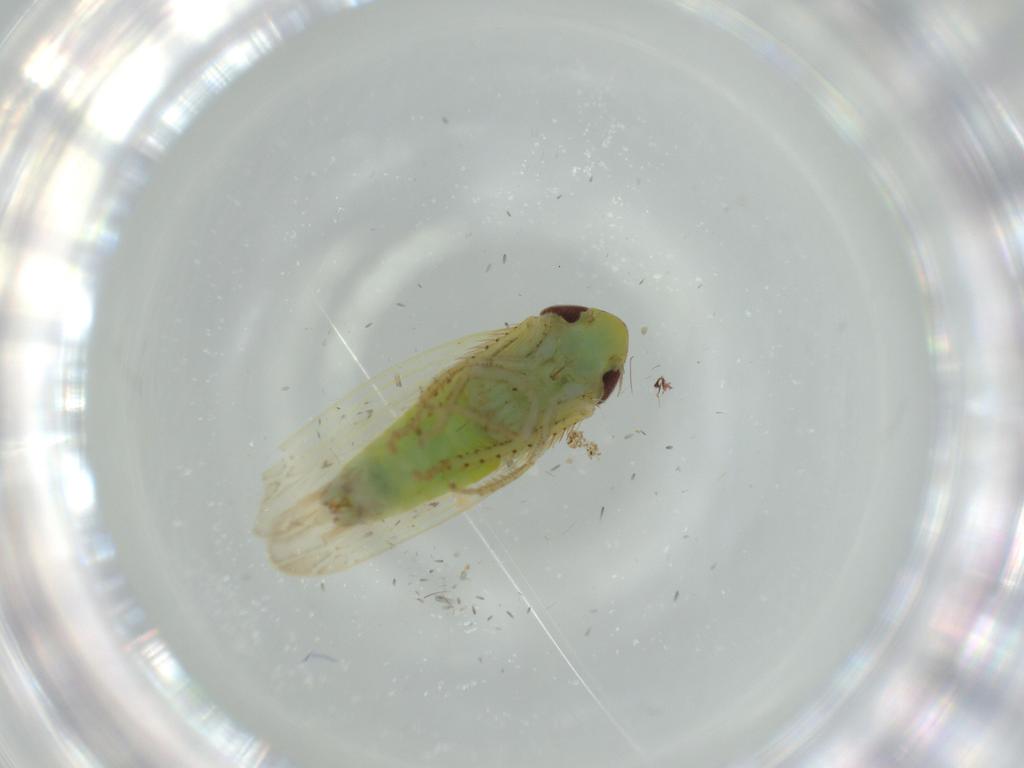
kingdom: Animalia
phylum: Arthropoda
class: Insecta
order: Hemiptera
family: Cicadellidae
